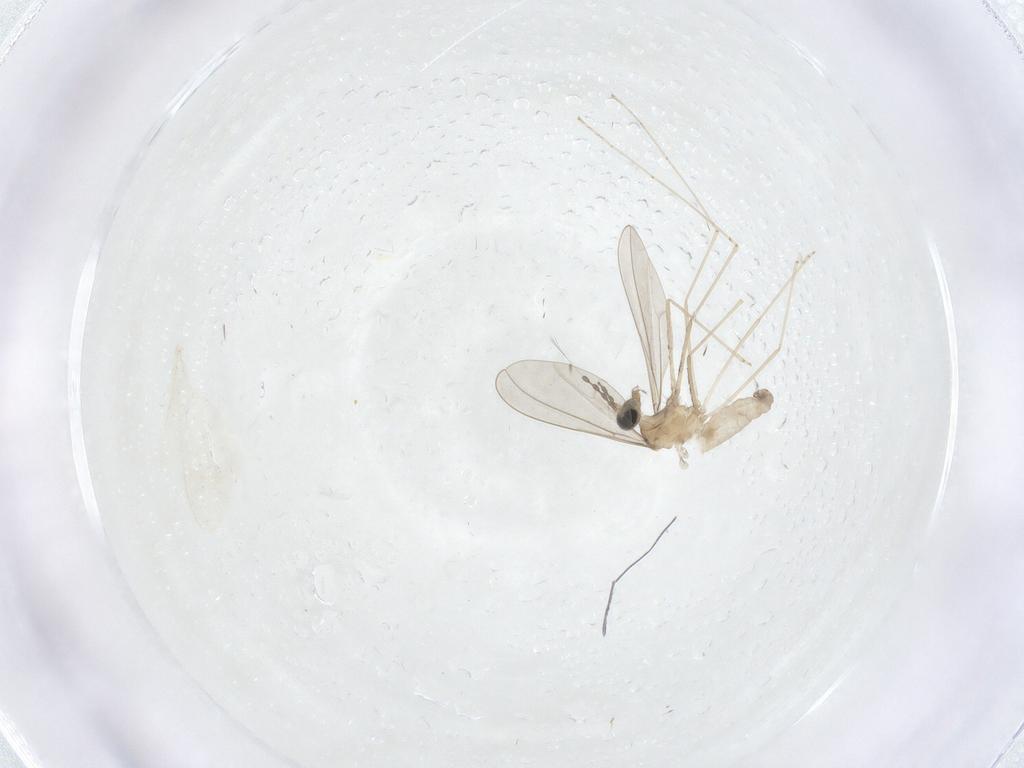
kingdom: Animalia
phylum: Arthropoda
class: Insecta
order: Diptera
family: Cecidomyiidae
